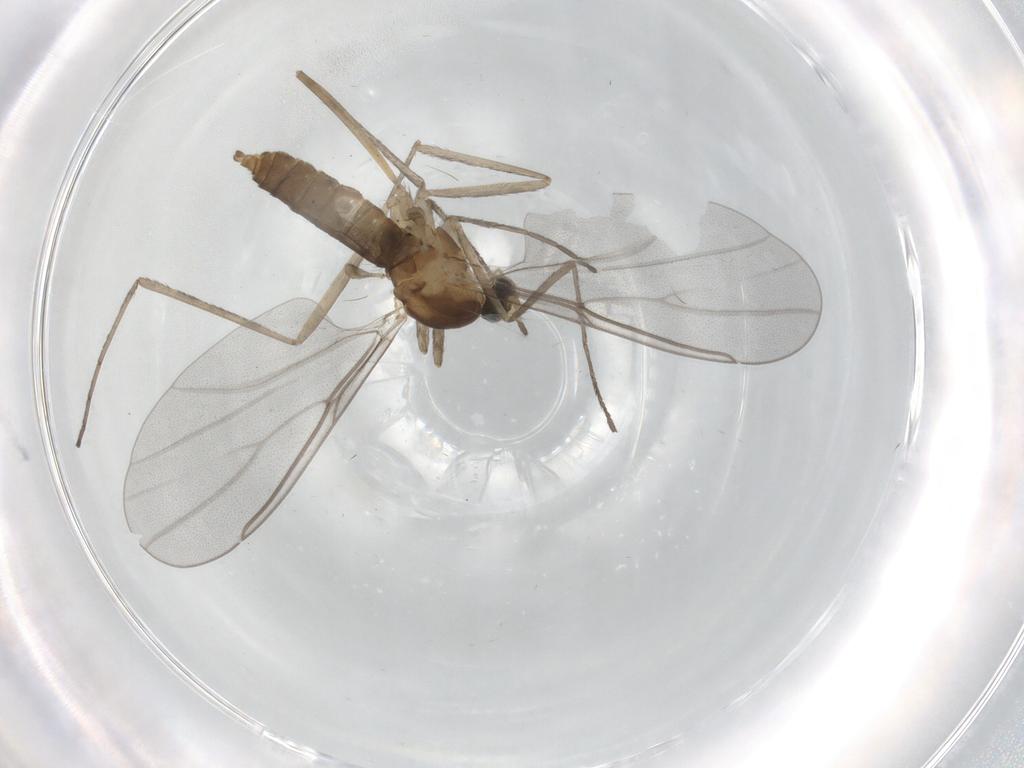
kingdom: Animalia
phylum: Arthropoda
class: Insecta
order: Diptera
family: Cecidomyiidae
